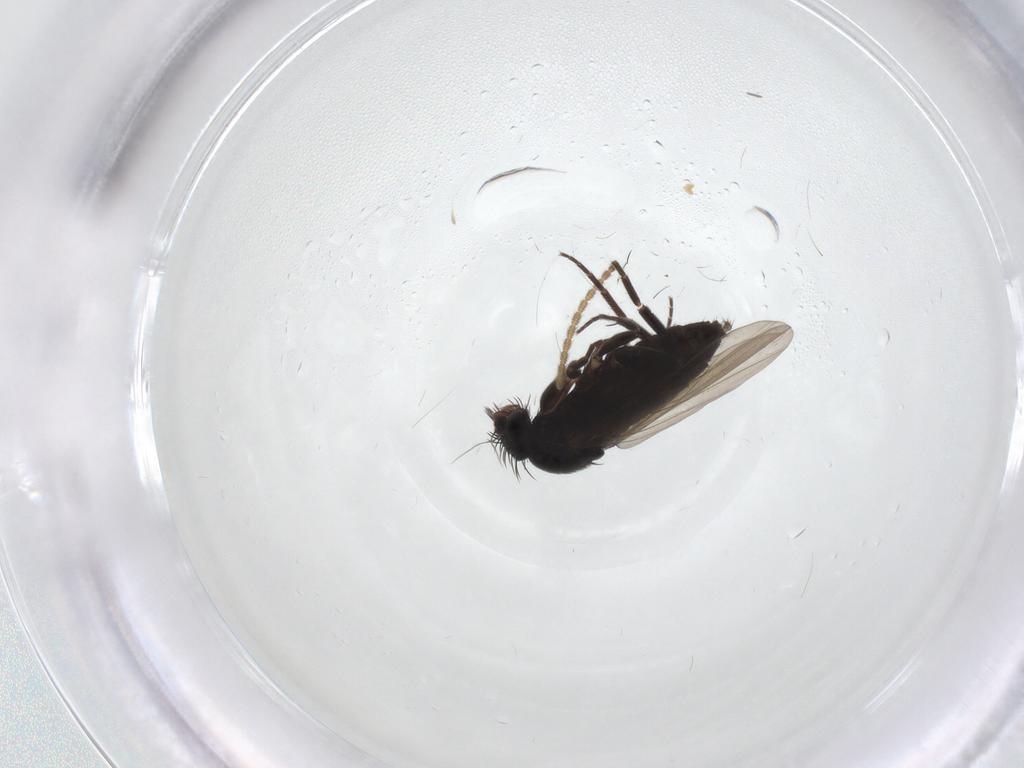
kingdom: Animalia
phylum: Arthropoda
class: Insecta
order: Diptera
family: Phoridae
